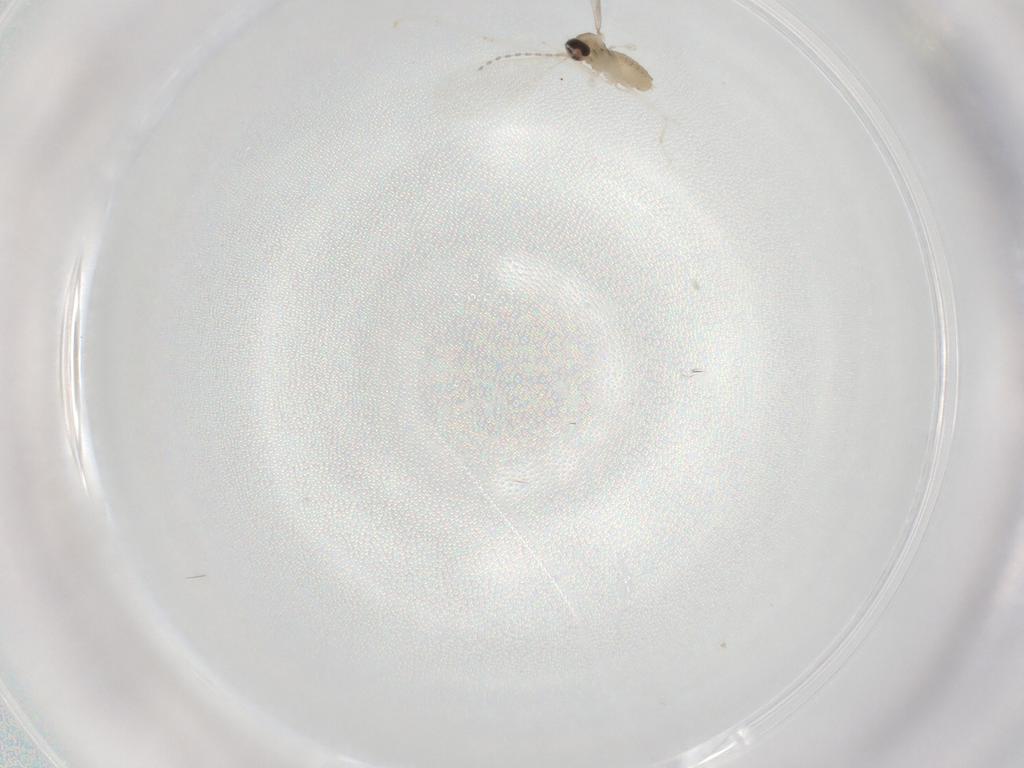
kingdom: Animalia
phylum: Arthropoda
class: Insecta
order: Diptera
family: Cecidomyiidae
